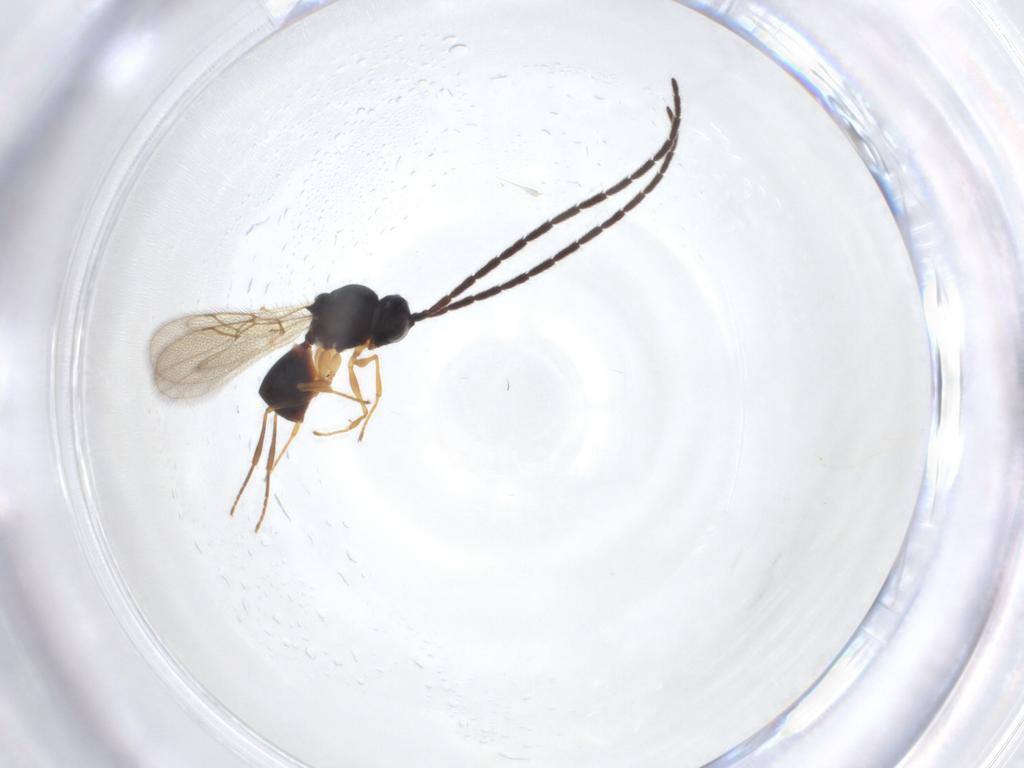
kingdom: Animalia
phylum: Arthropoda
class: Insecta
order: Hymenoptera
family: Figitidae
